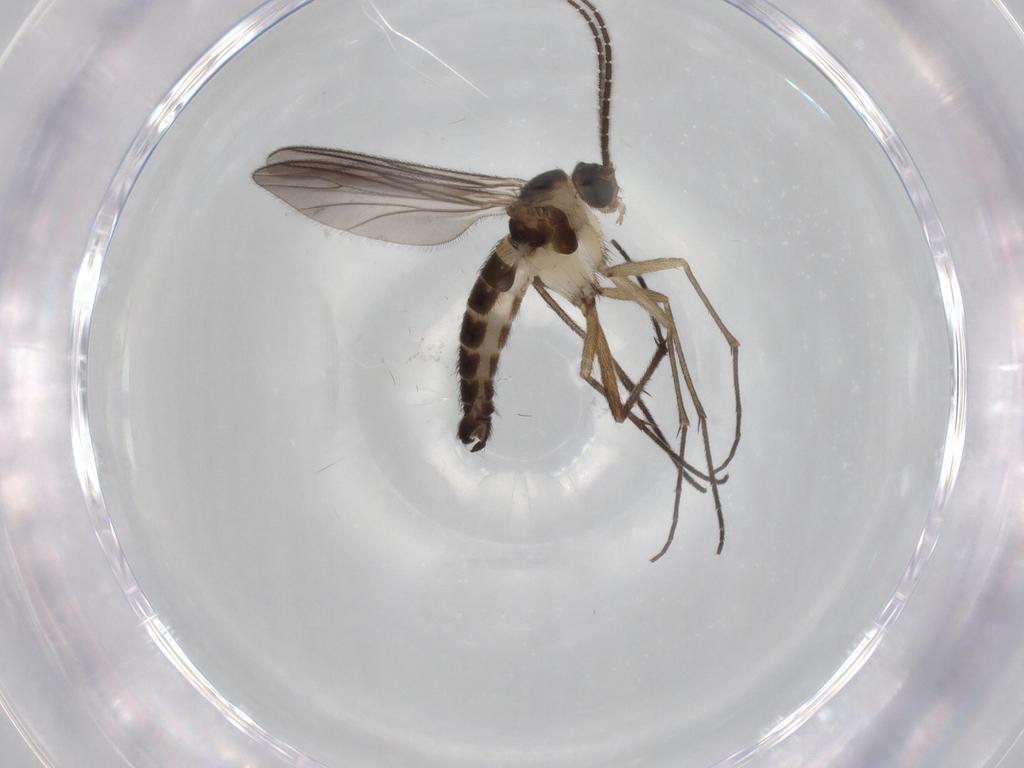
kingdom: Animalia
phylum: Arthropoda
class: Insecta
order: Diptera
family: Sciaridae
